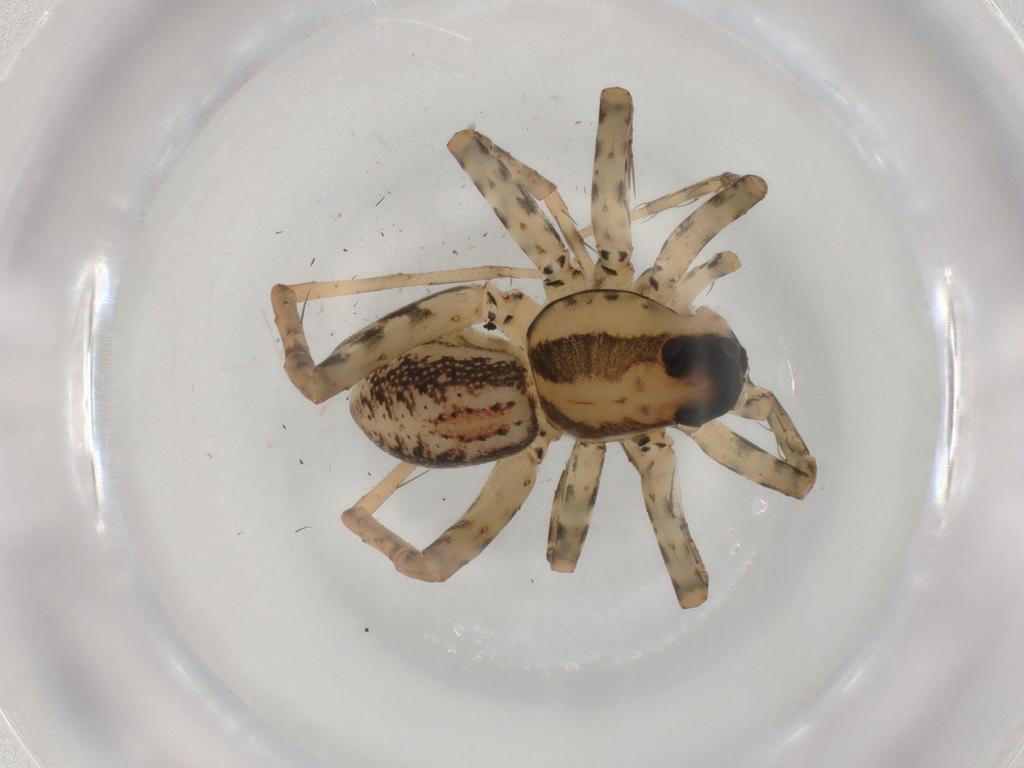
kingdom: Animalia
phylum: Arthropoda
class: Arachnida
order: Araneae
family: Lycosidae
